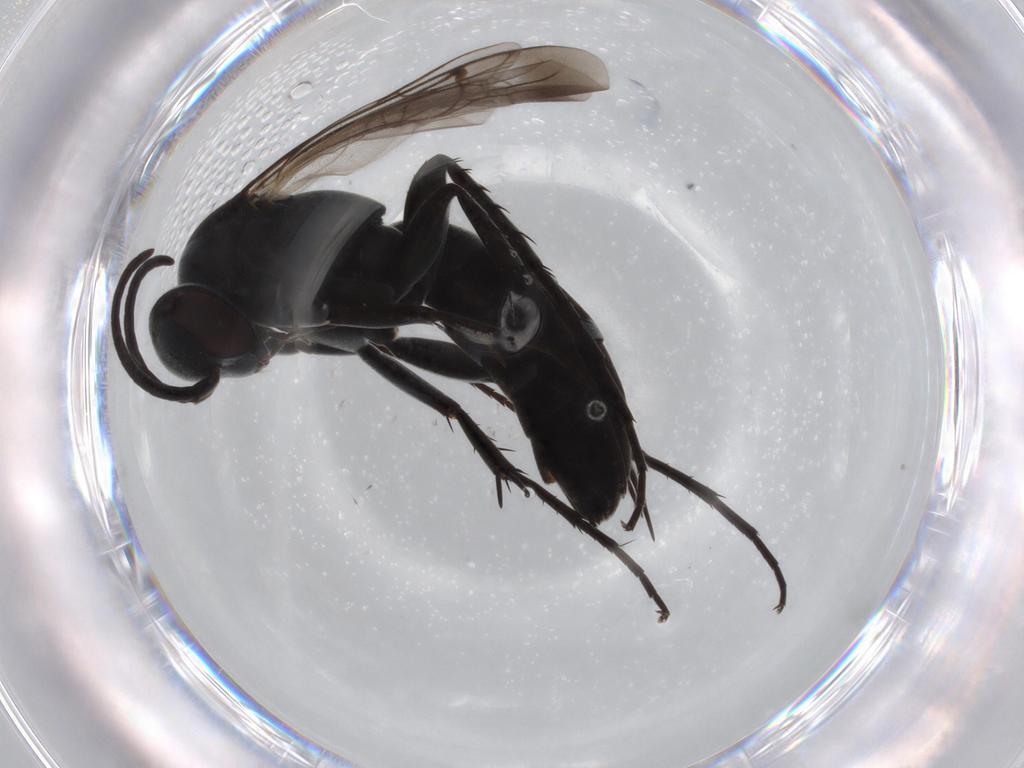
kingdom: Animalia
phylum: Arthropoda
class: Insecta
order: Hymenoptera
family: Pompilidae
